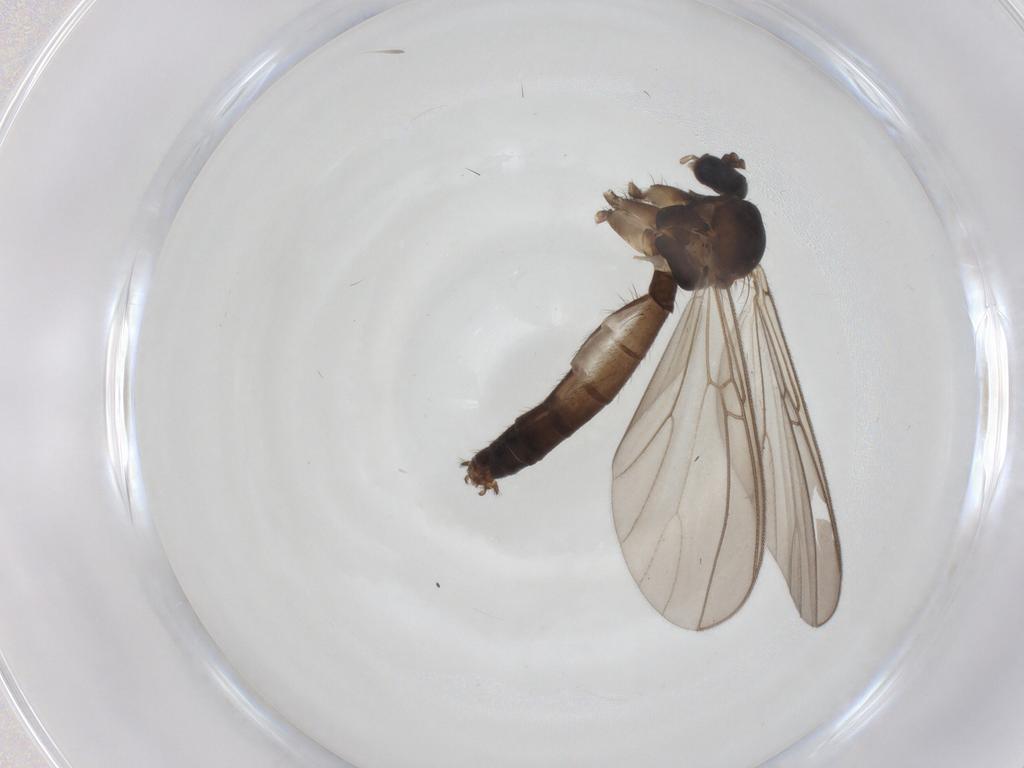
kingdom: Animalia
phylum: Arthropoda
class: Insecta
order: Diptera
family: Mycetophilidae
